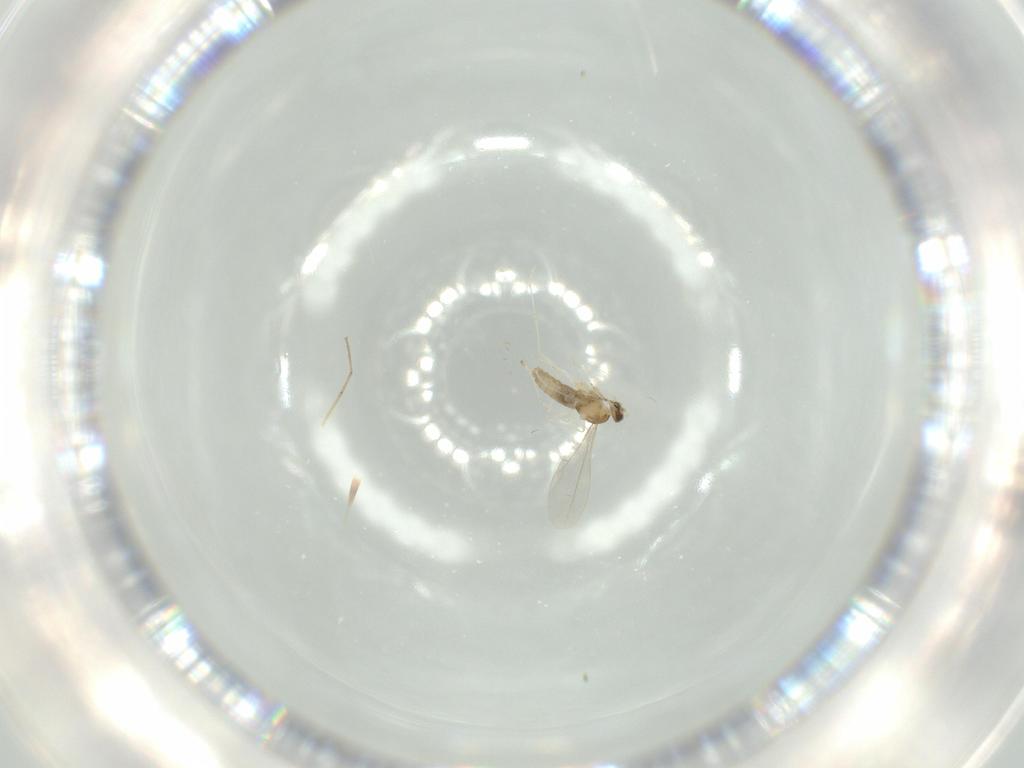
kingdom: Animalia
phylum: Arthropoda
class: Insecta
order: Diptera
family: Cecidomyiidae
